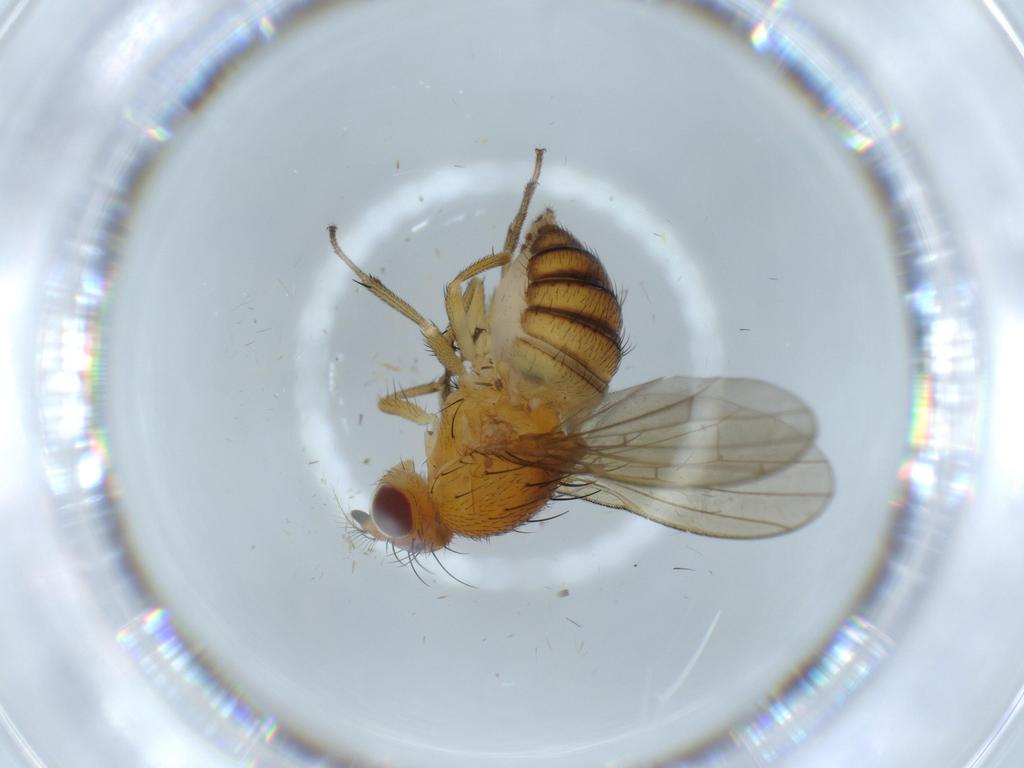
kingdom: Animalia
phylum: Arthropoda
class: Insecta
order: Diptera
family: Chironomidae
